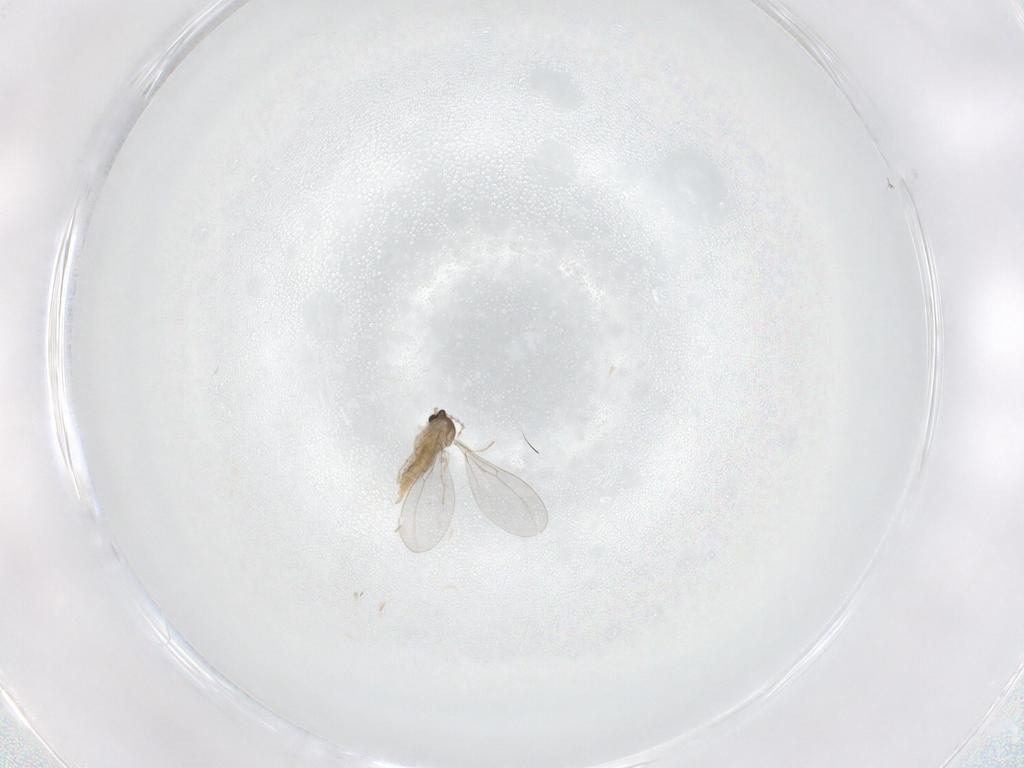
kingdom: Animalia
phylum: Arthropoda
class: Insecta
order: Diptera
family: Cecidomyiidae
